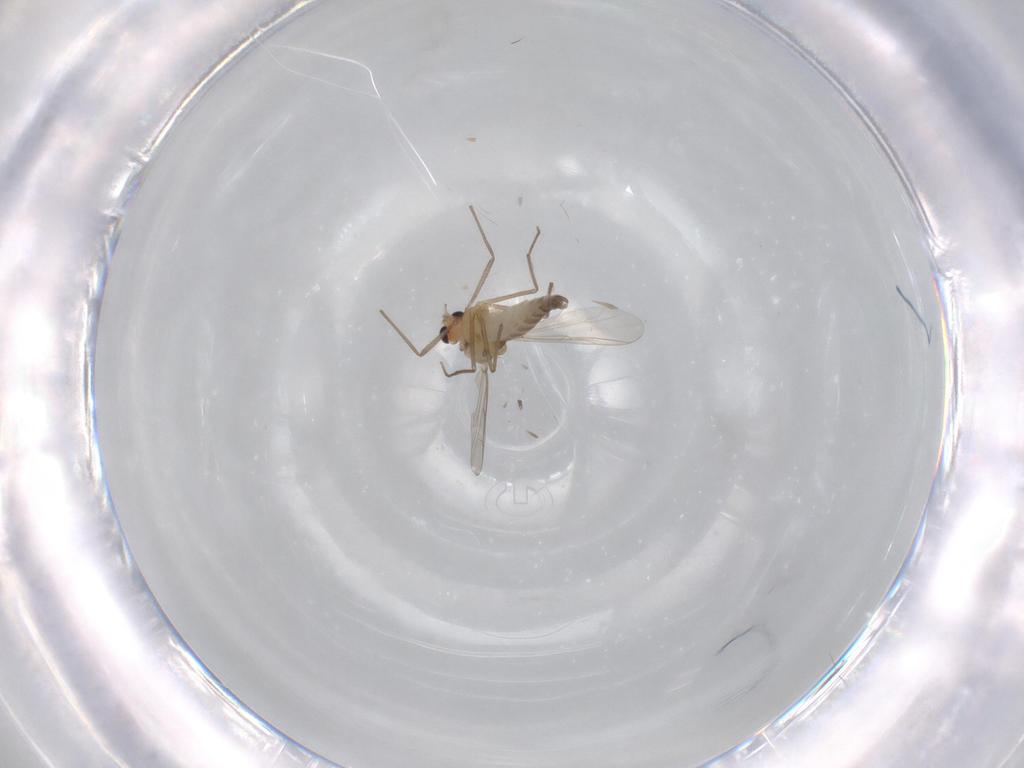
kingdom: Animalia
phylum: Arthropoda
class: Insecta
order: Diptera
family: Chironomidae
